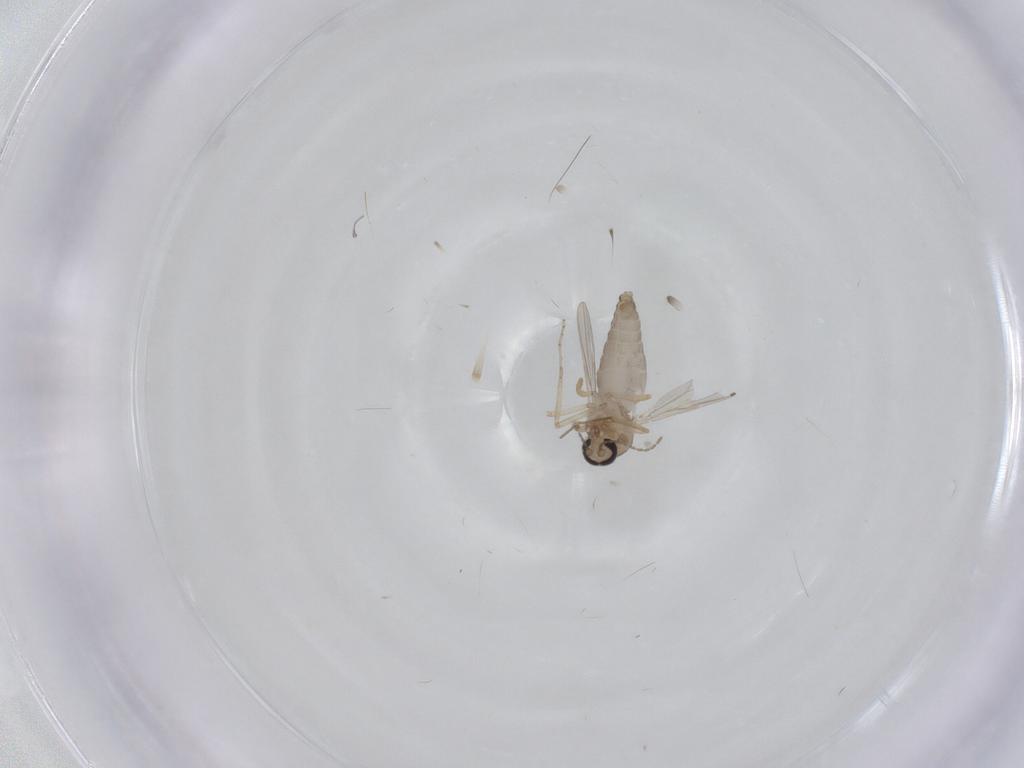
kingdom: Animalia
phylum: Arthropoda
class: Insecta
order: Diptera
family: Ceratopogonidae
